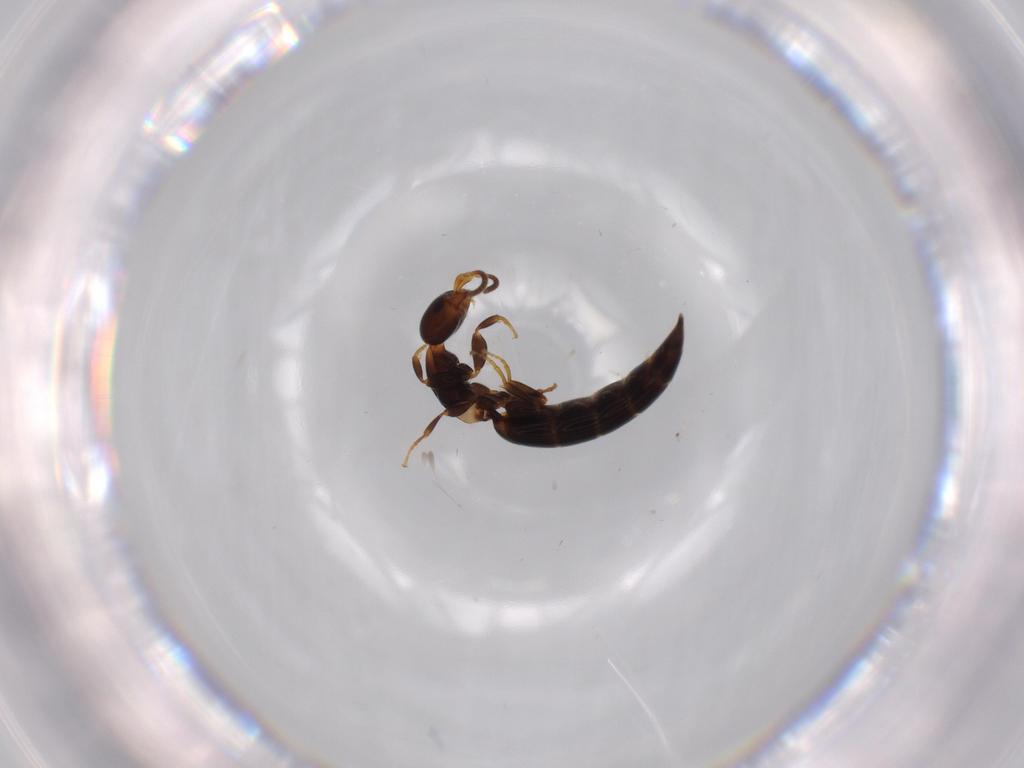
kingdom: Animalia
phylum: Arthropoda
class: Insecta
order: Hymenoptera
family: Bethylidae
